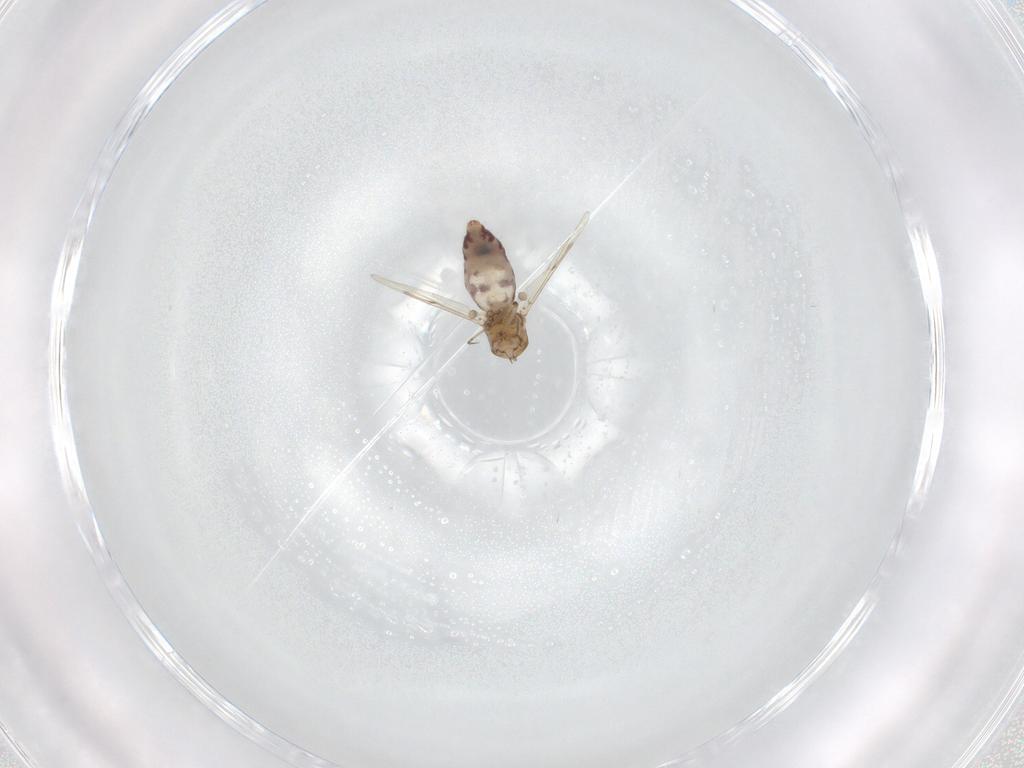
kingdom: Animalia
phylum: Arthropoda
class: Insecta
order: Diptera
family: Ceratopogonidae
